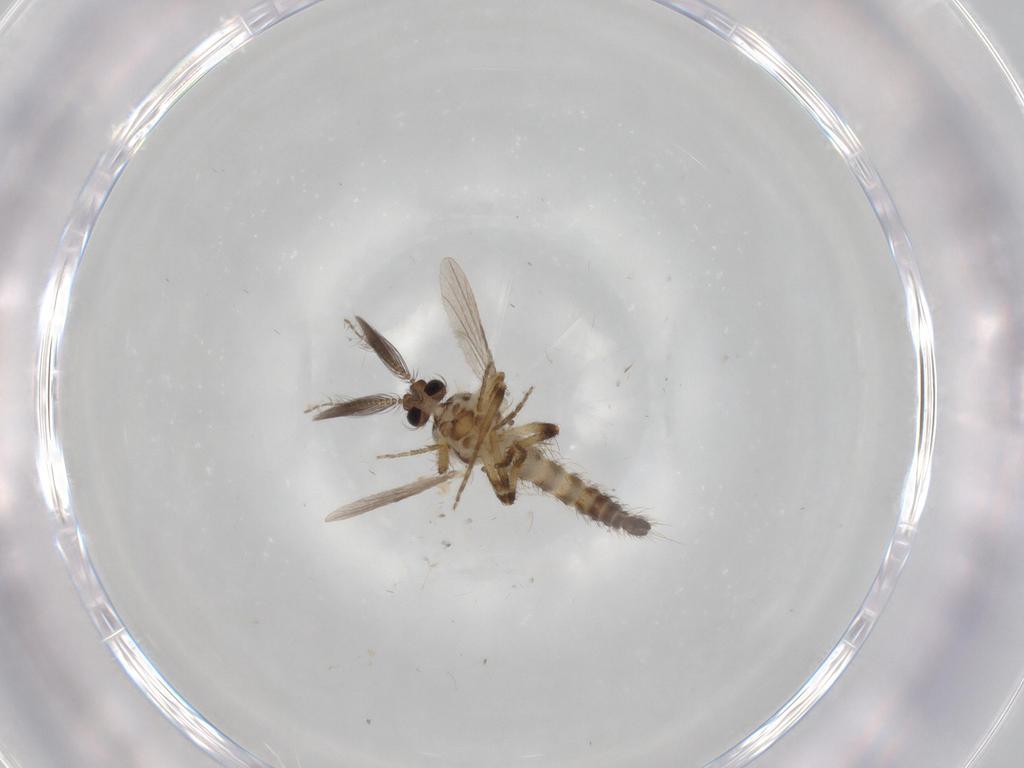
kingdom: Animalia
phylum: Arthropoda
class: Insecta
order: Diptera
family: Ceratopogonidae
